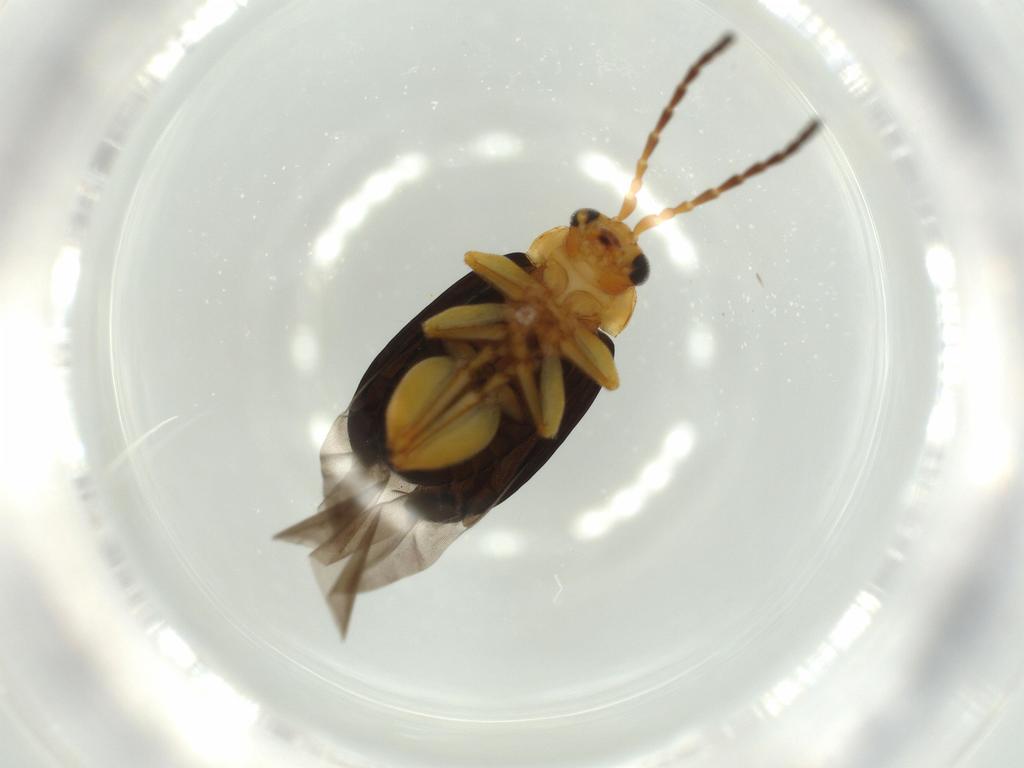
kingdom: Animalia
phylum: Arthropoda
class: Insecta
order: Coleoptera
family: Chrysomelidae
